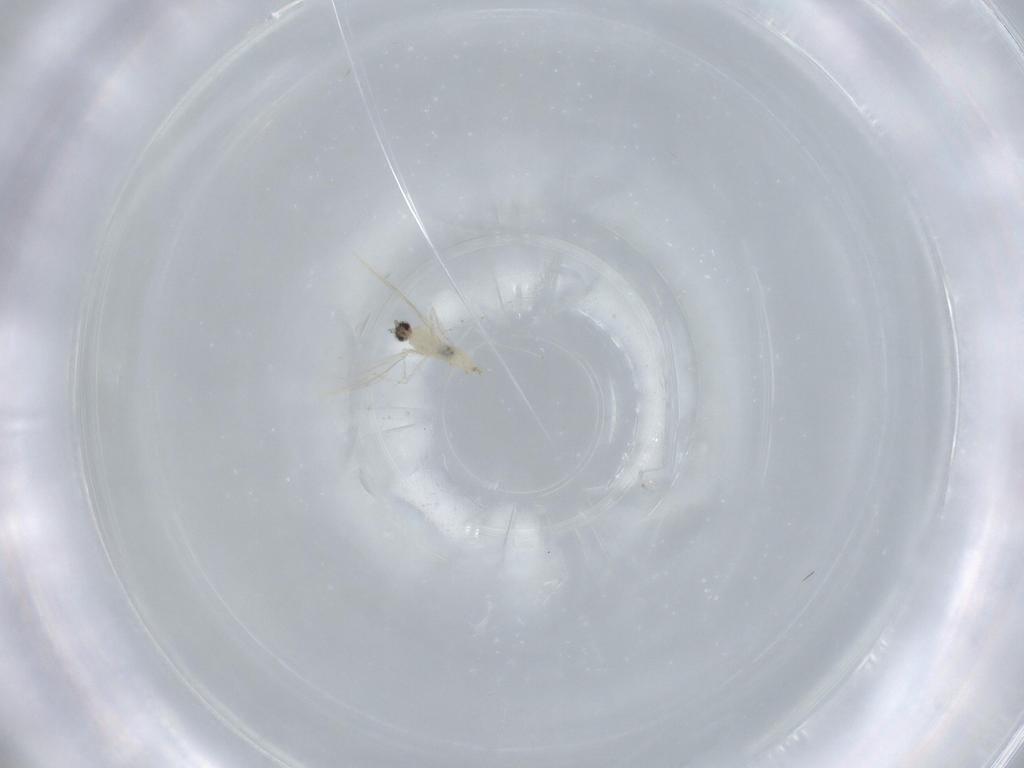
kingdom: Animalia
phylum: Arthropoda
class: Insecta
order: Diptera
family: Cecidomyiidae
